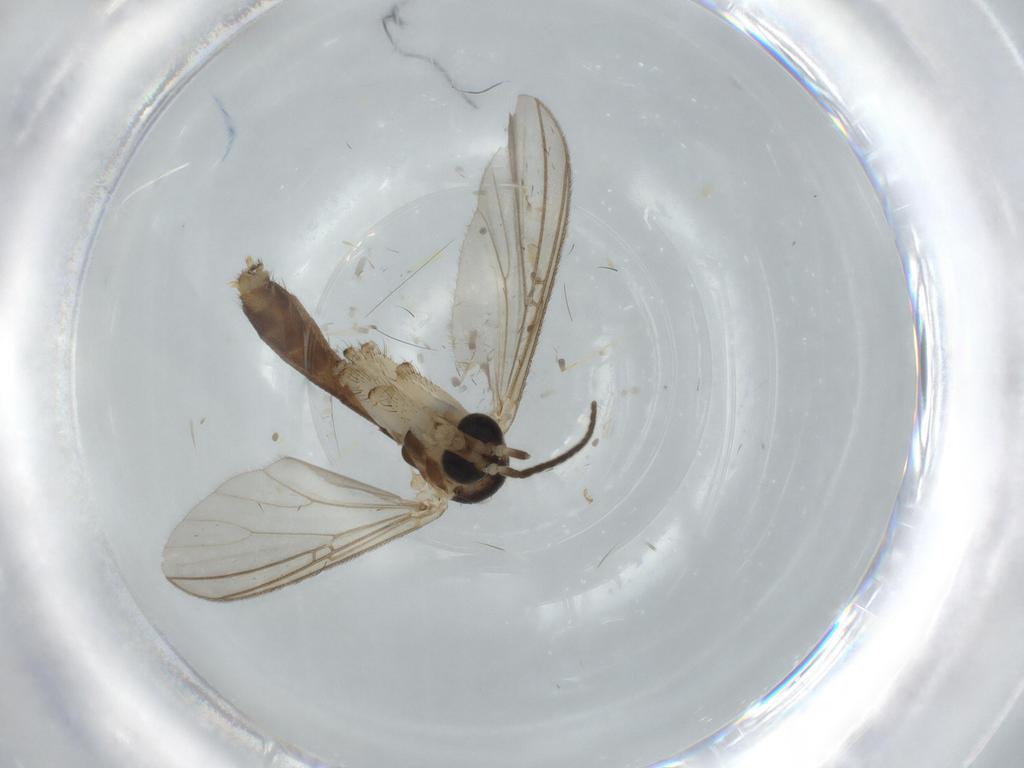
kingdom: Animalia
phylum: Arthropoda
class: Insecta
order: Diptera
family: Mycetophilidae
